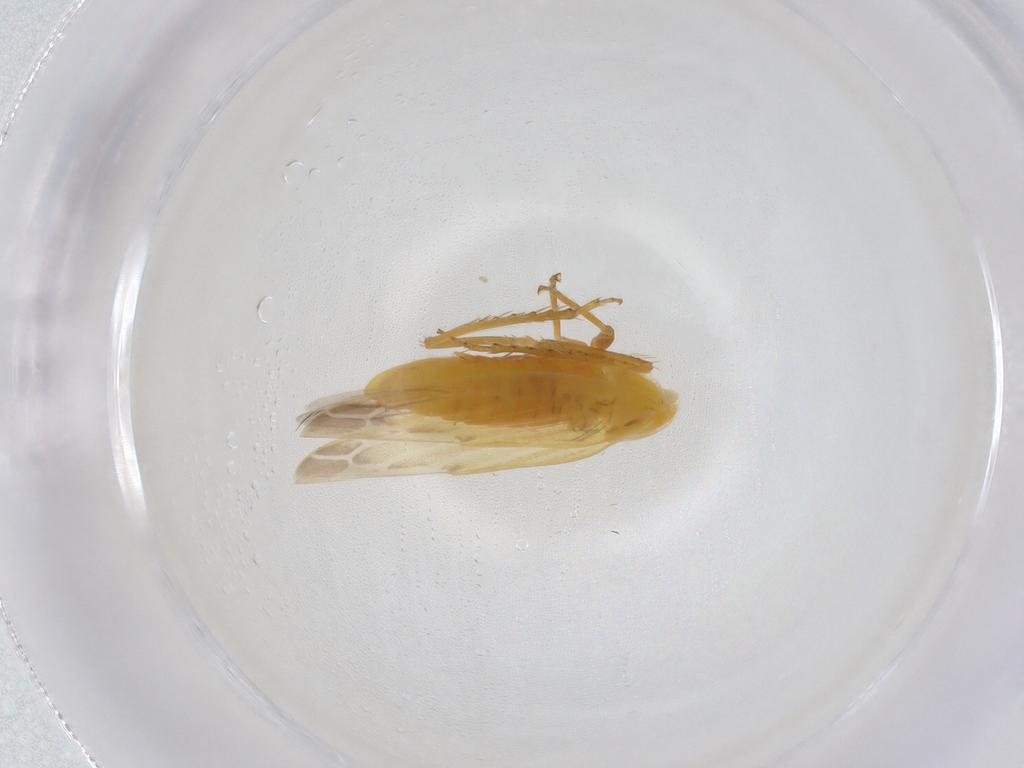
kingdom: Animalia
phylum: Arthropoda
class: Insecta
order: Hemiptera
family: Cicadellidae
